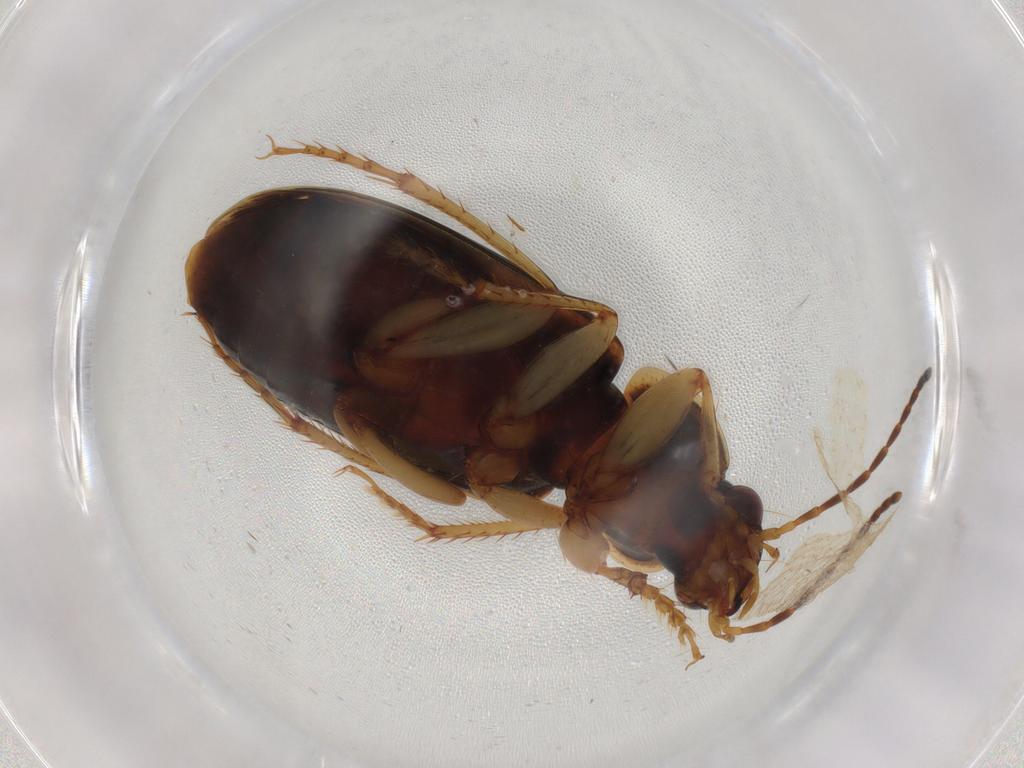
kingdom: Animalia
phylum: Arthropoda
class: Insecta
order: Coleoptera
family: Carabidae
